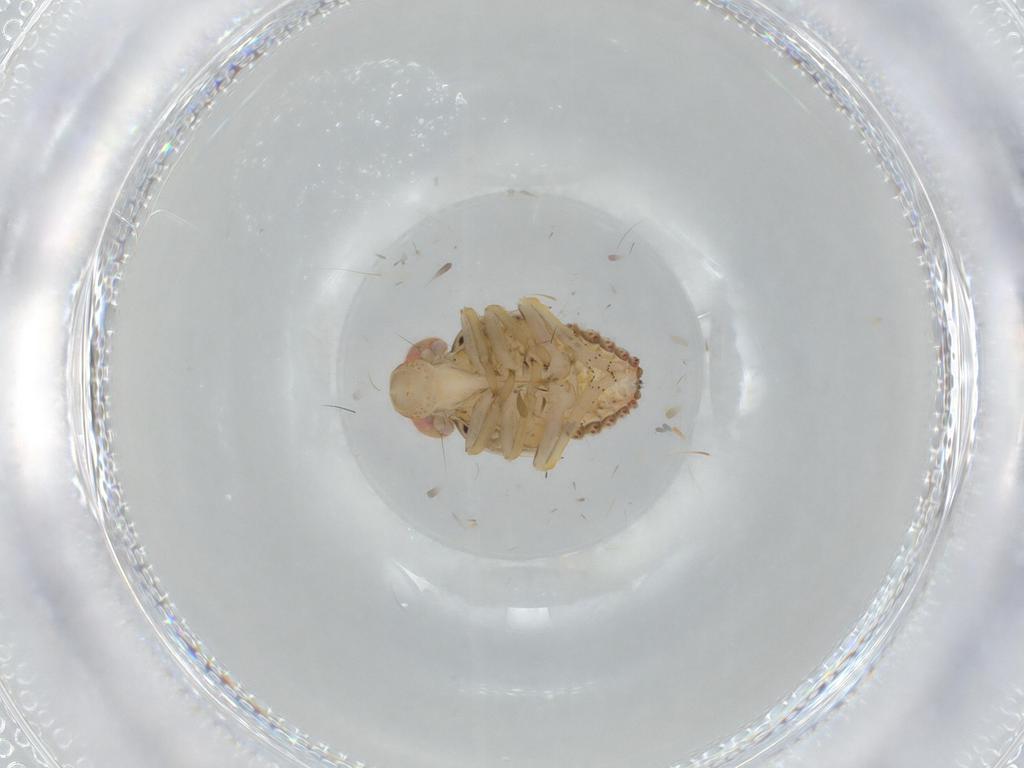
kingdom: Animalia
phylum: Arthropoda
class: Insecta
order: Hemiptera
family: Issidae
